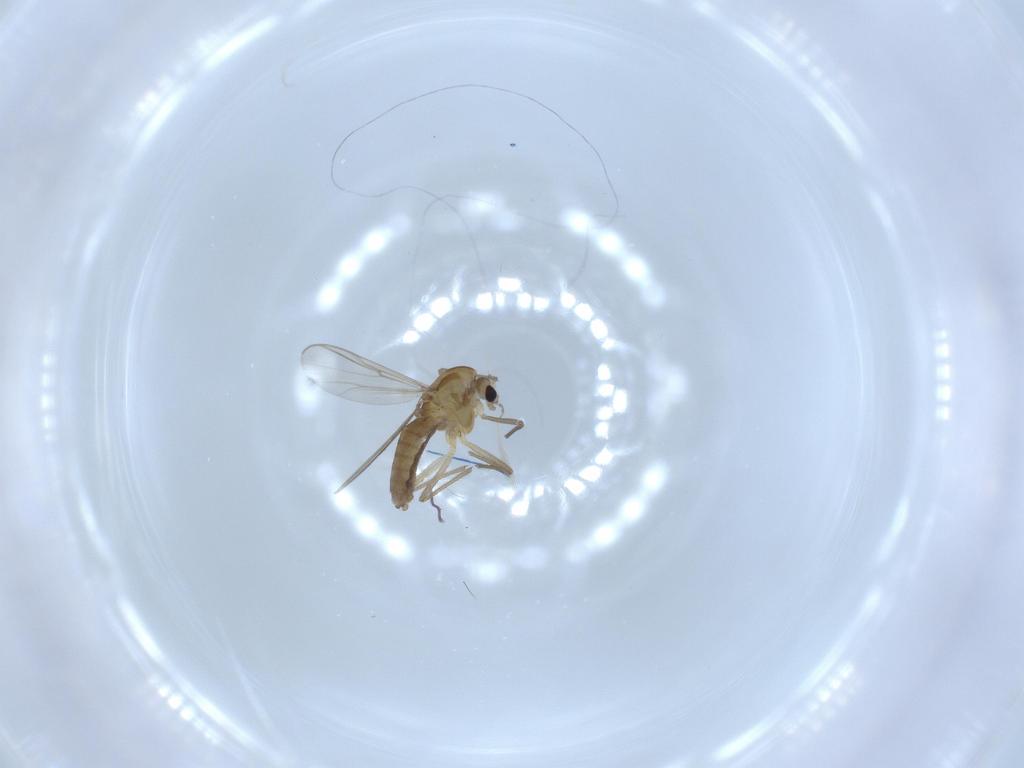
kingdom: Animalia
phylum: Arthropoda
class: Insecta
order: Diptera
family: Chironomidae
